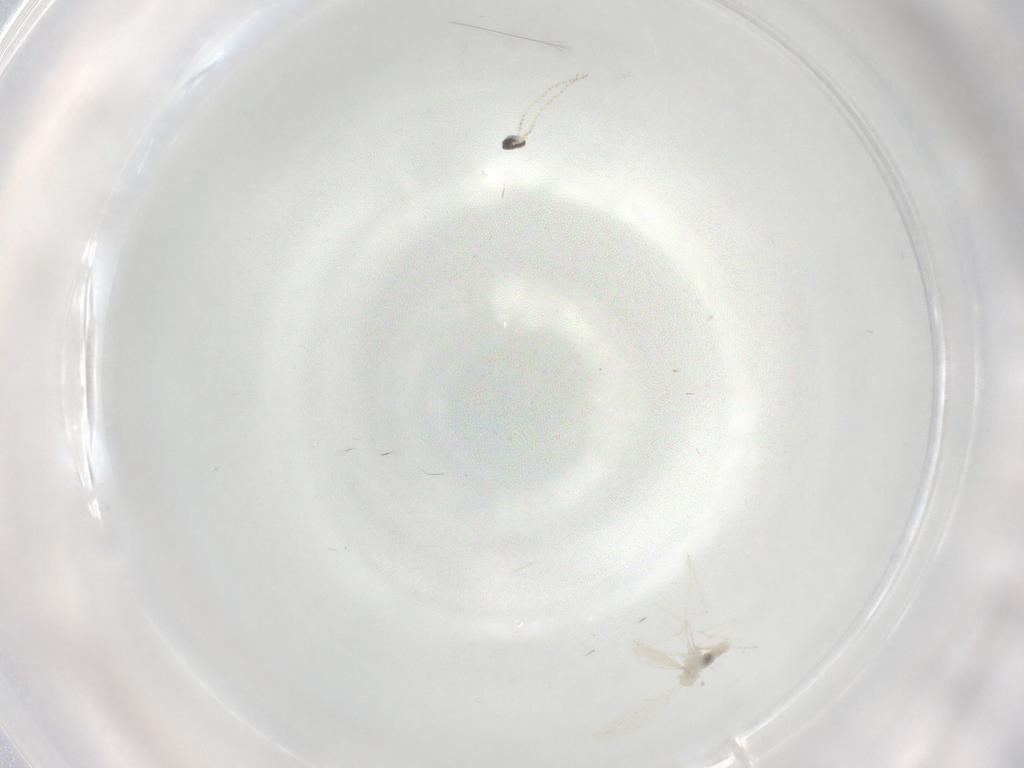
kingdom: Animalia
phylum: Arthropoda
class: Insecta
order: Diptera
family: Cecidomyiidae
